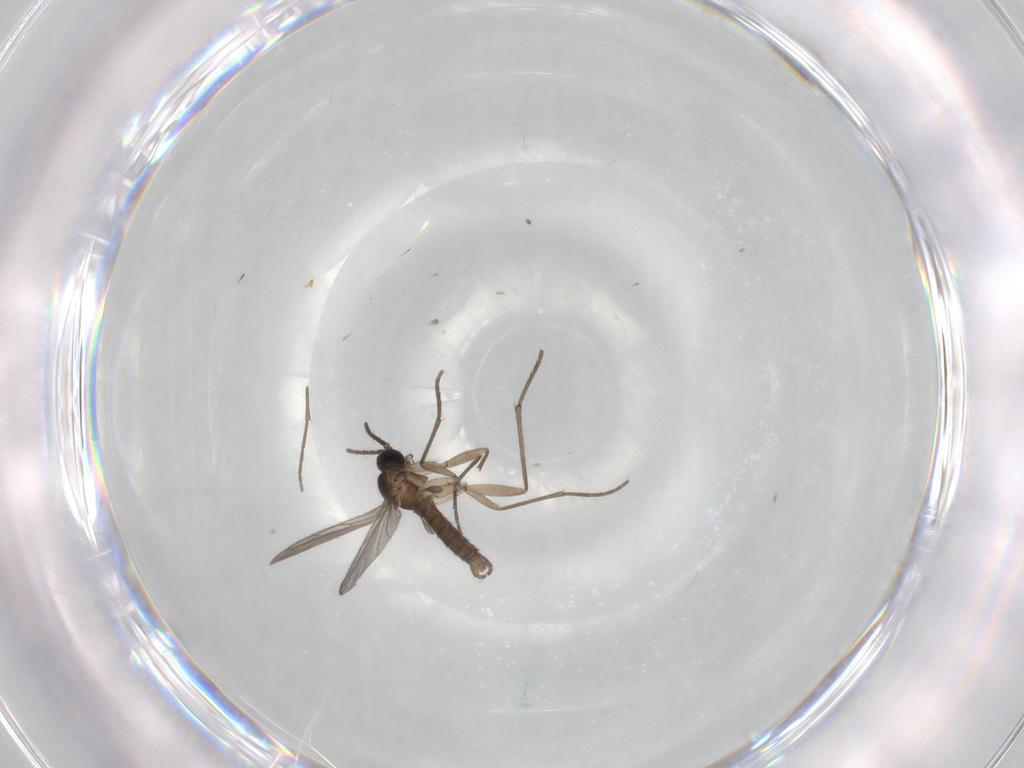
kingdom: Animalia
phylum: Arthropoda
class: Insecta
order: Diptera
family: Sciaridae
